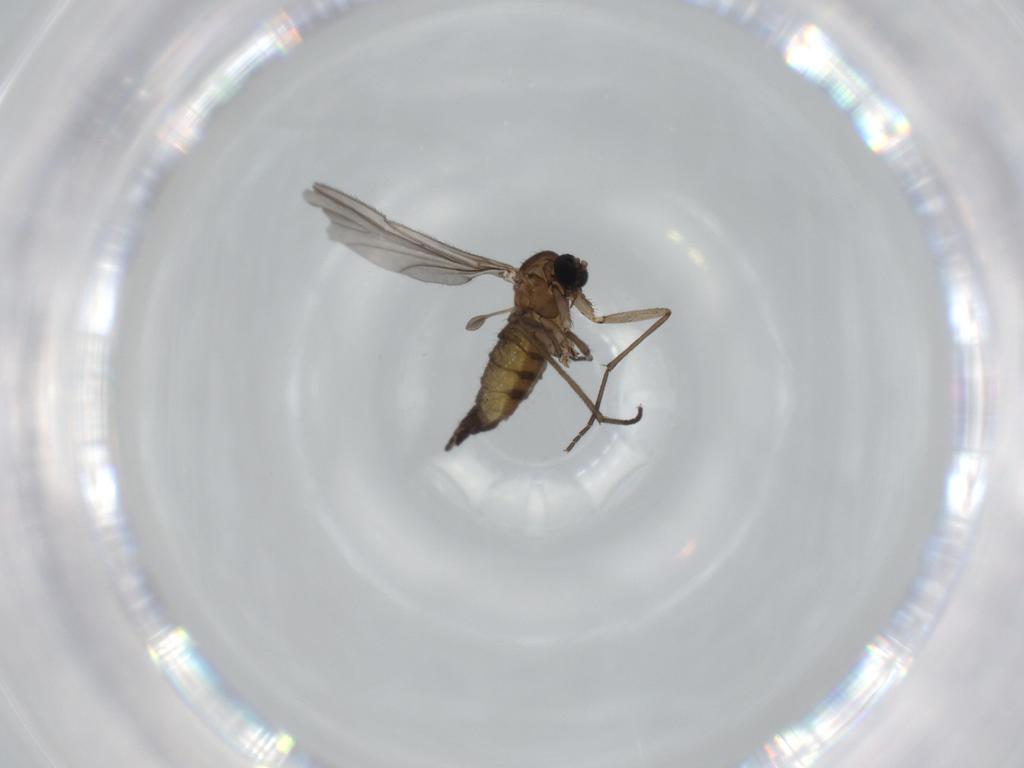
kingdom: Animalia
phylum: Arthropoda
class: Insecta
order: Diptera
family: Sciaridae
